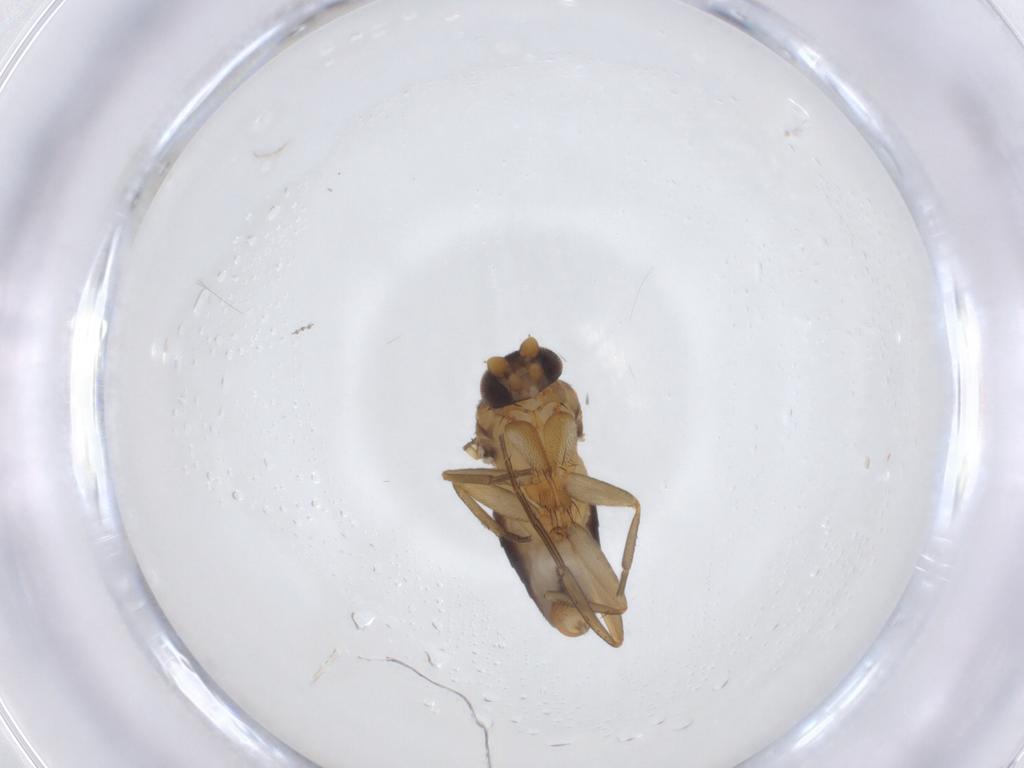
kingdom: Animalia
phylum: Arthropoda
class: Insecta
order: Diptera
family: Phoridae
